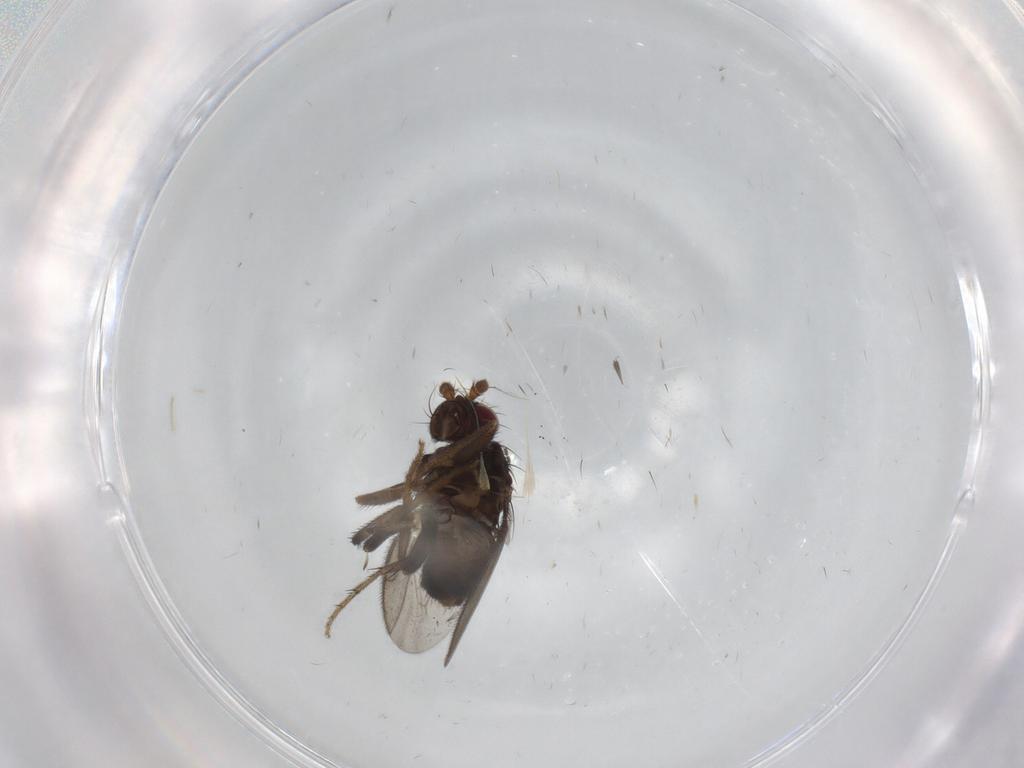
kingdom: Animalia
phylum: Arthropoda
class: Insecta
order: Diptera
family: Sphaeroceridae
